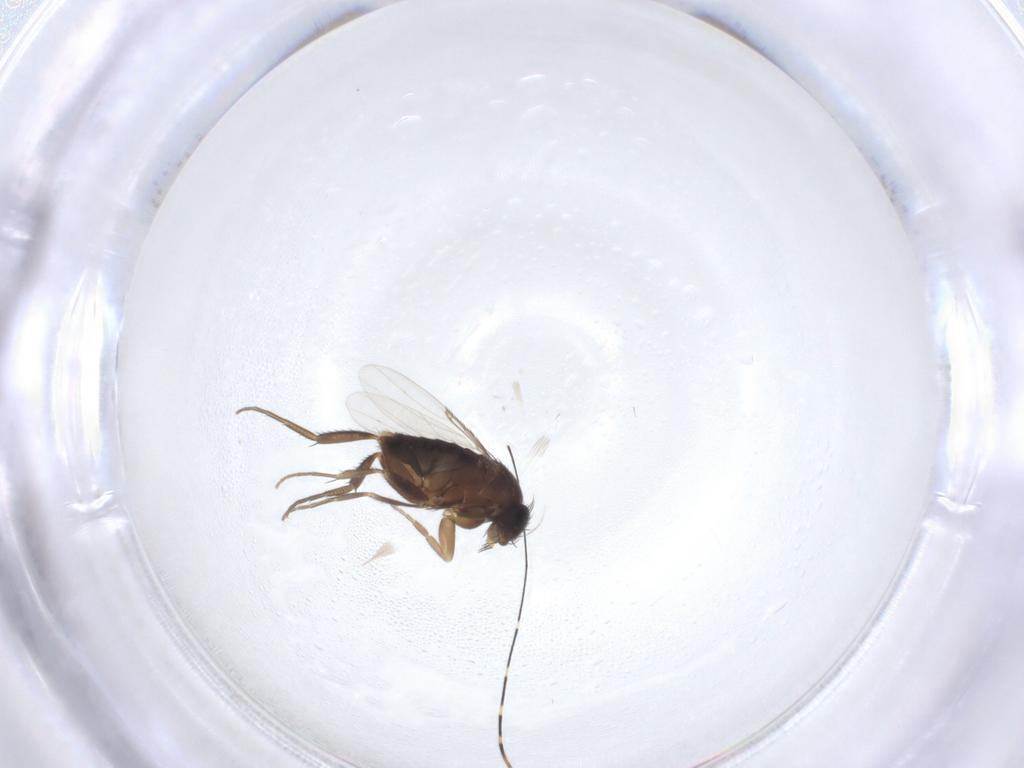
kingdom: Animalia
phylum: Arthropoda
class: Insecta
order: Diptera
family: Phoridae
